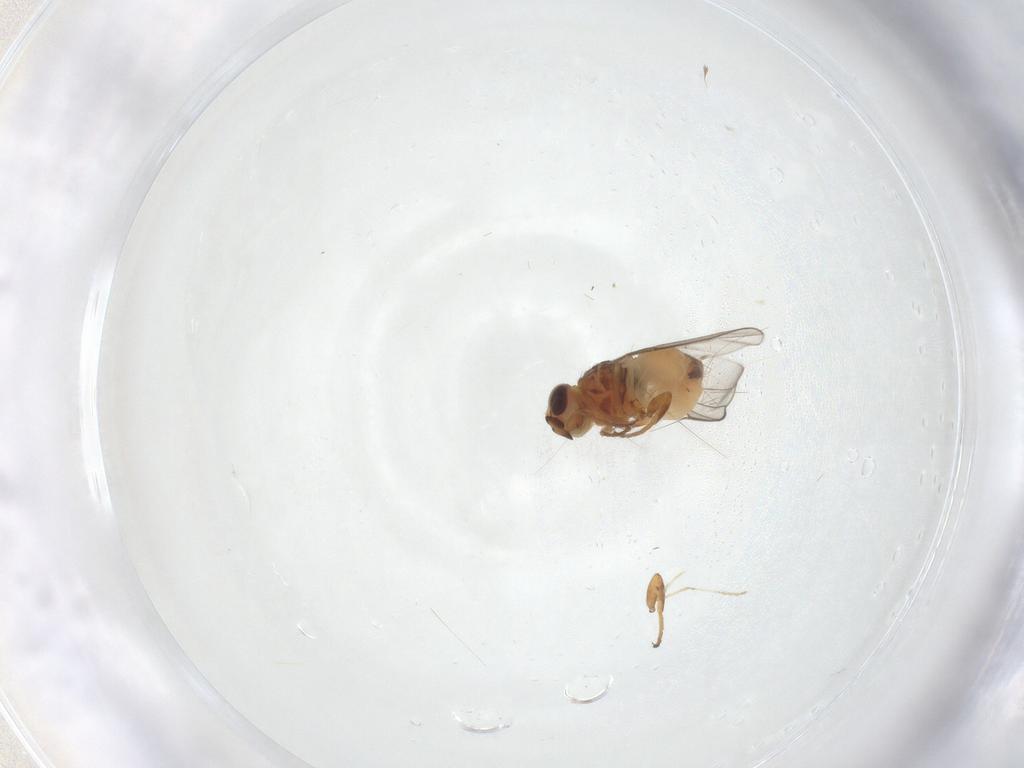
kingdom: Animalia
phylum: Arthropoda
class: Insecta
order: Diptera
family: Chloropidae
